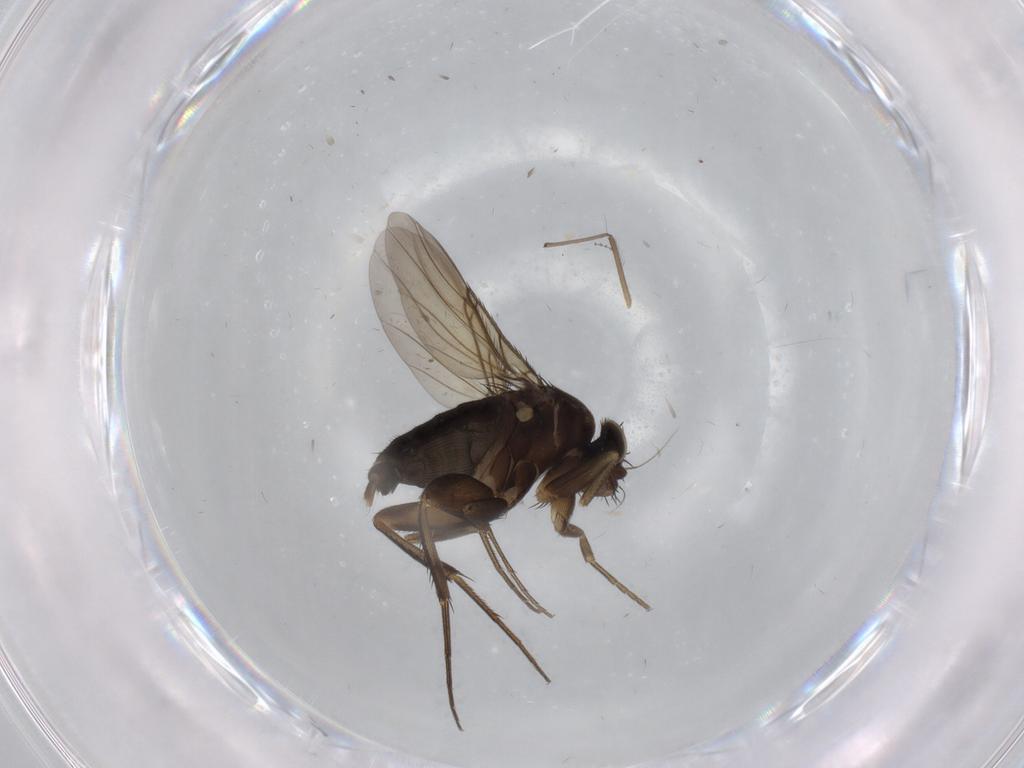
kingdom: Animalia
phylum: Arthropoda
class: Insecta
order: Diptera
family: Phoridae
